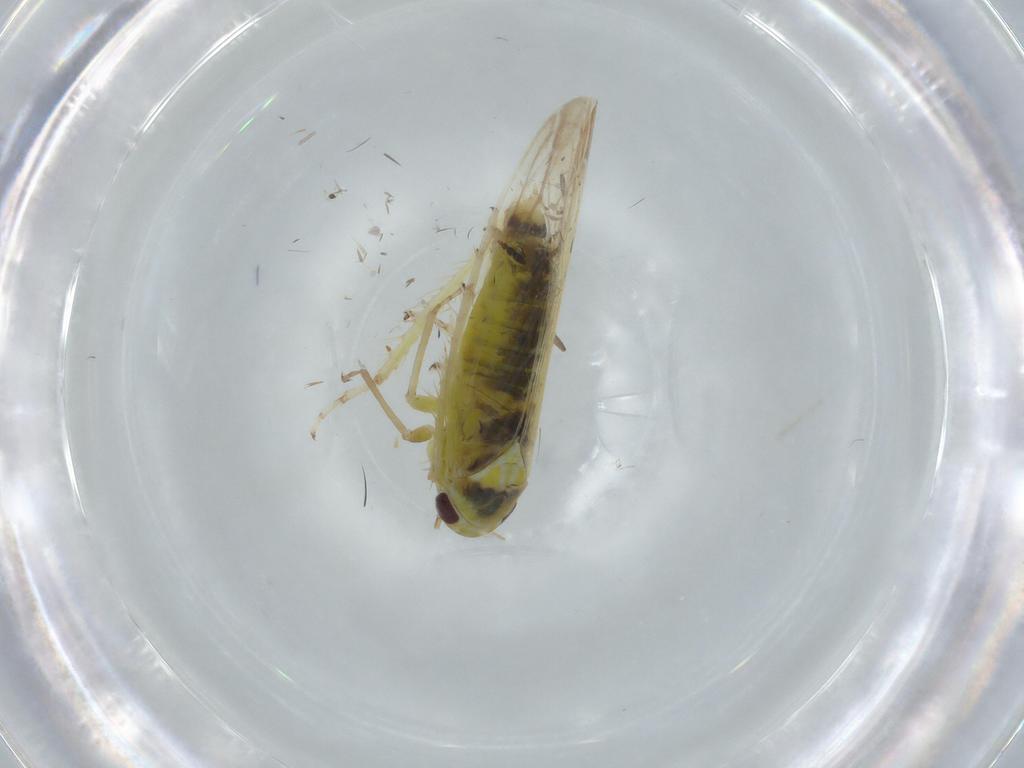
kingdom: Animalia
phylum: Arthropoda
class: Insecta
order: Hemiptera
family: Cicadellidae
